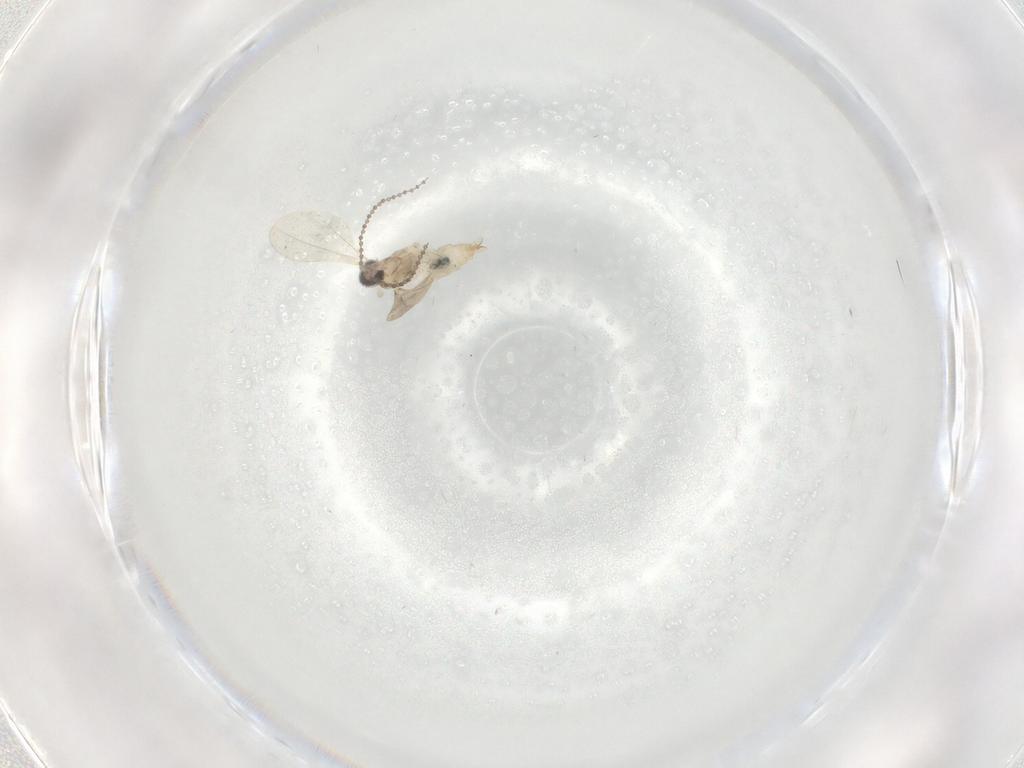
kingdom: Animalia
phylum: Arthropoda
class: Insecta
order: Diptera
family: Cecidomyiidae
